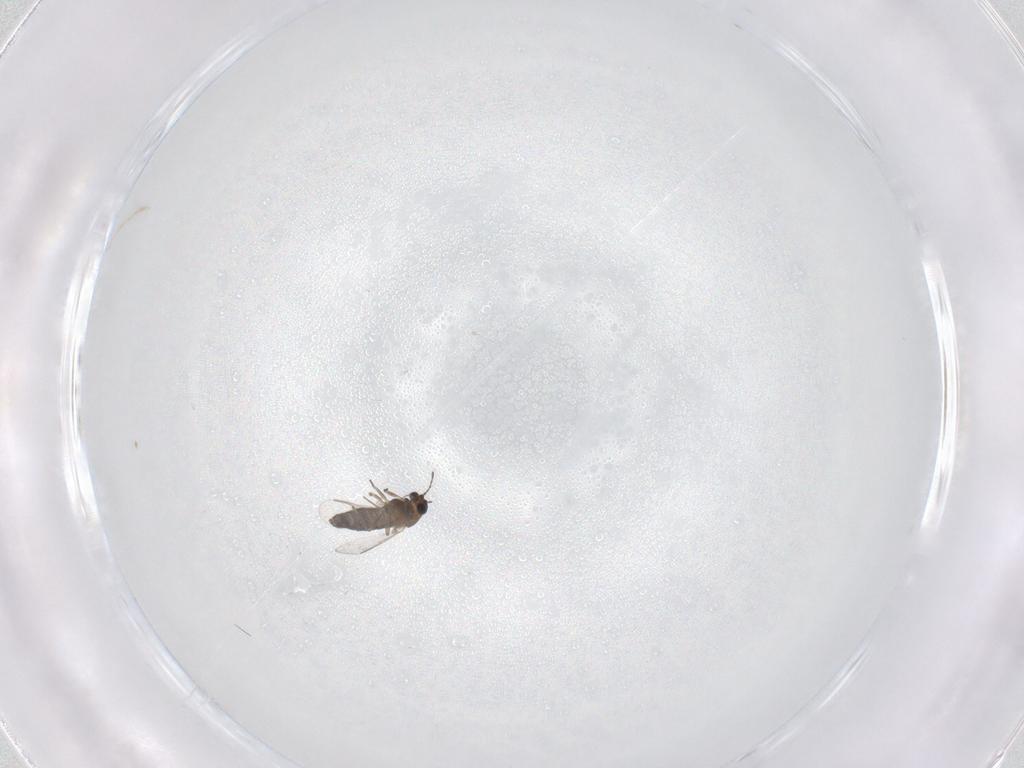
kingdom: Animalia
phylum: Arthropoda
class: Insecta
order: Diptera
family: Chironomidae
